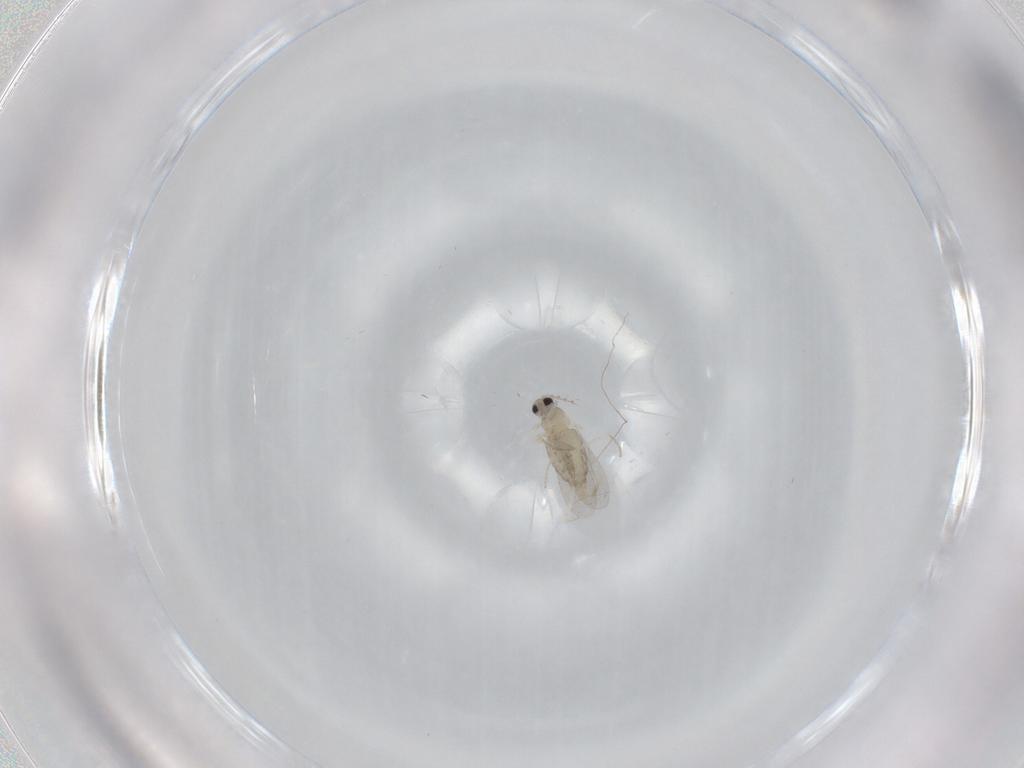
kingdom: Animalia
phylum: Arthropoda
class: Insecta
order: Diptera
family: Cecidomyiidae
